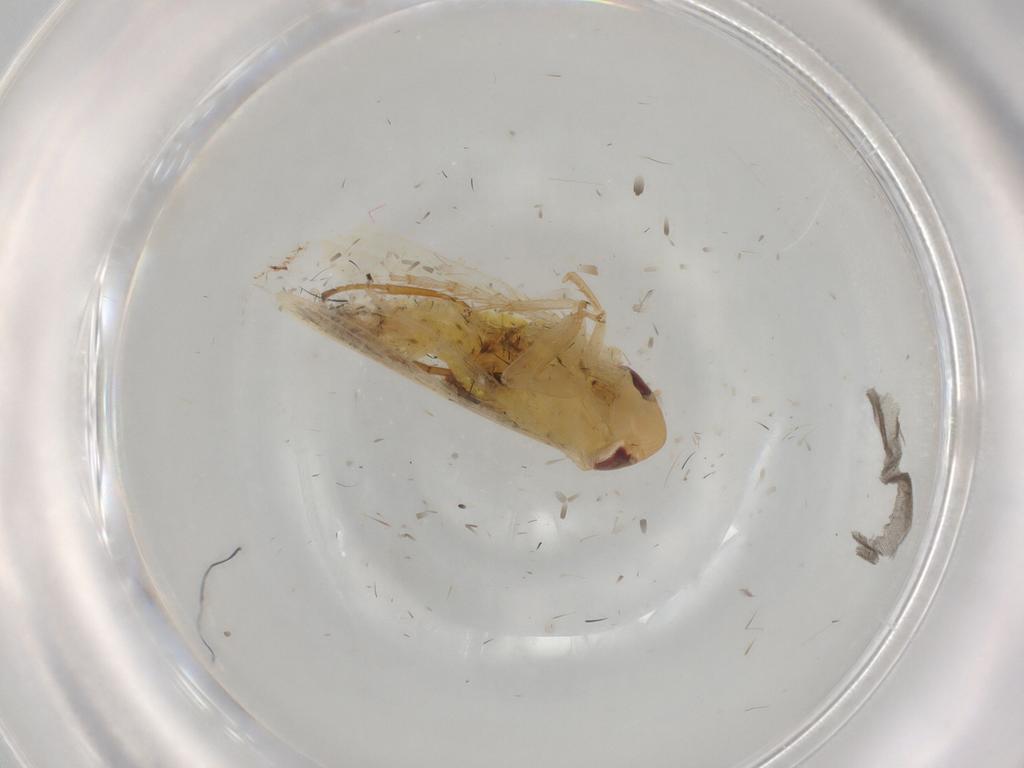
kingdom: Animalia
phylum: Arthropoda
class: Insecta
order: Hemiptera
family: Cicadellidae
